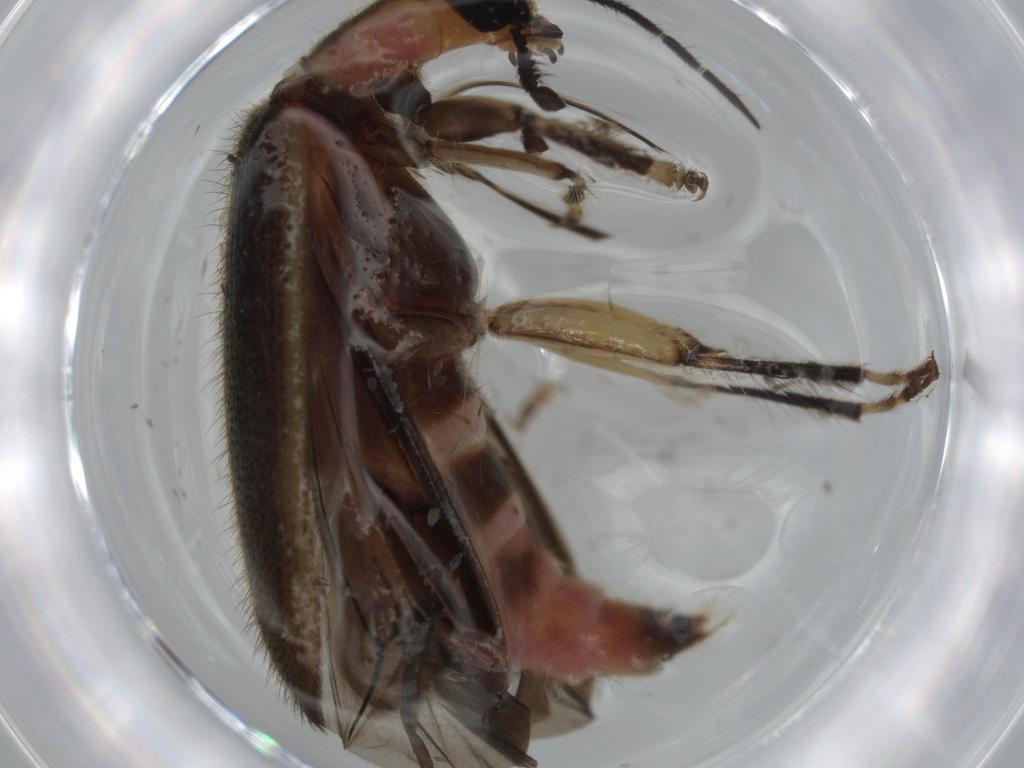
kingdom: Animalia
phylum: Arthropoda
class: Insecta
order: Coleoptera
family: Cleridae
